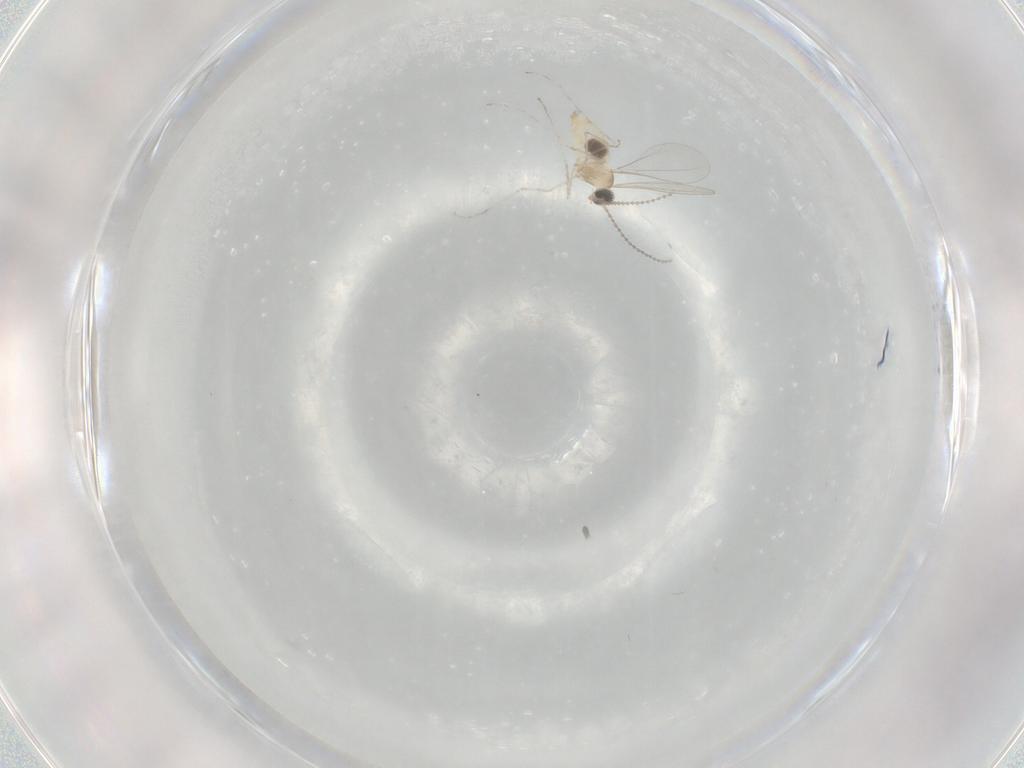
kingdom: Animalia
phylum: Arthropoda
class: Insecta
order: Diptera
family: Cecidomyiidae
